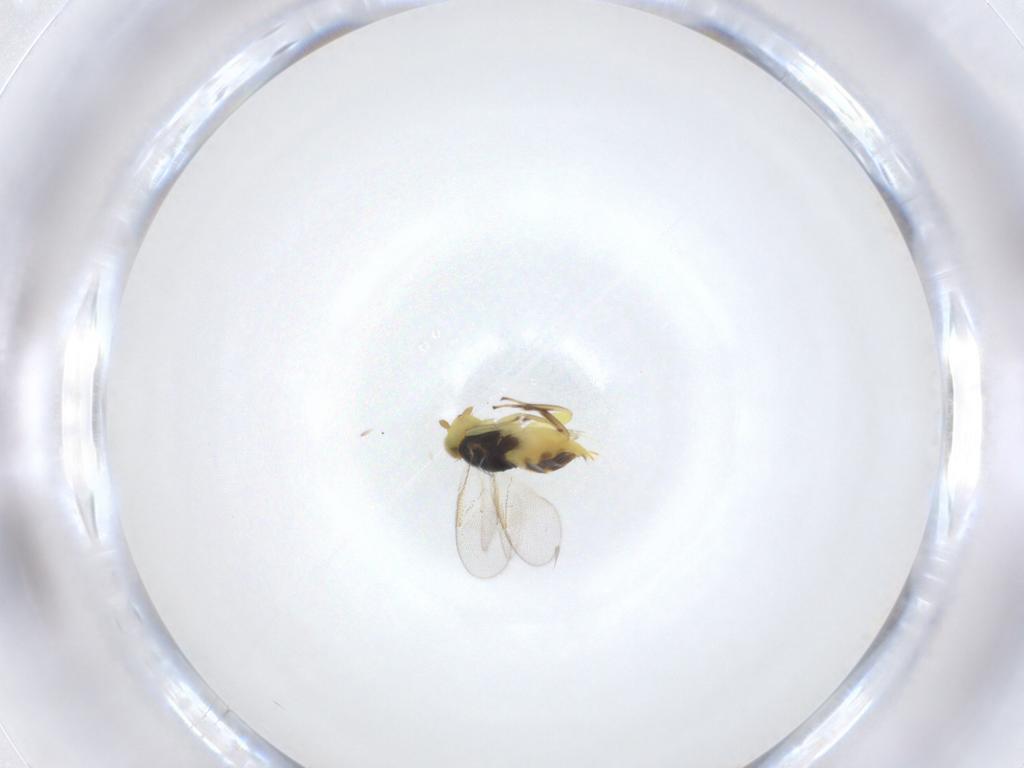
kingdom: Animalia
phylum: Arthropoda
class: Insecta
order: Hymenoptera
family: Aphelinidae
